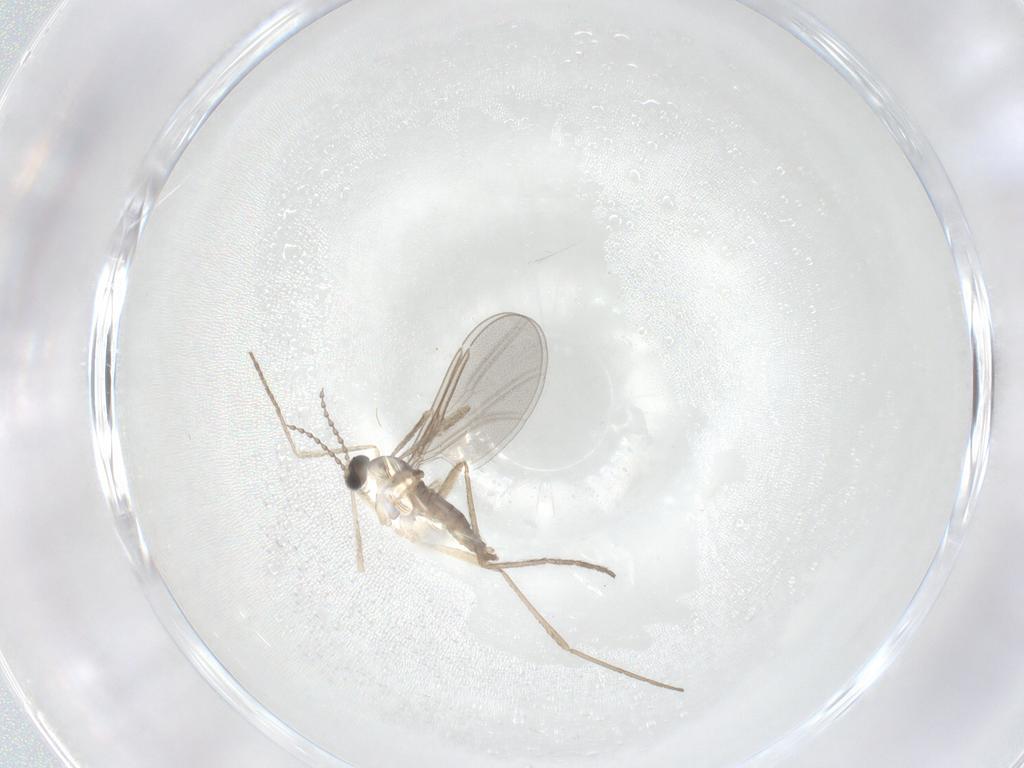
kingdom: Animalia
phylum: Arthropoda
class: Insecta
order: Diptera
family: Cecidomyiidae
